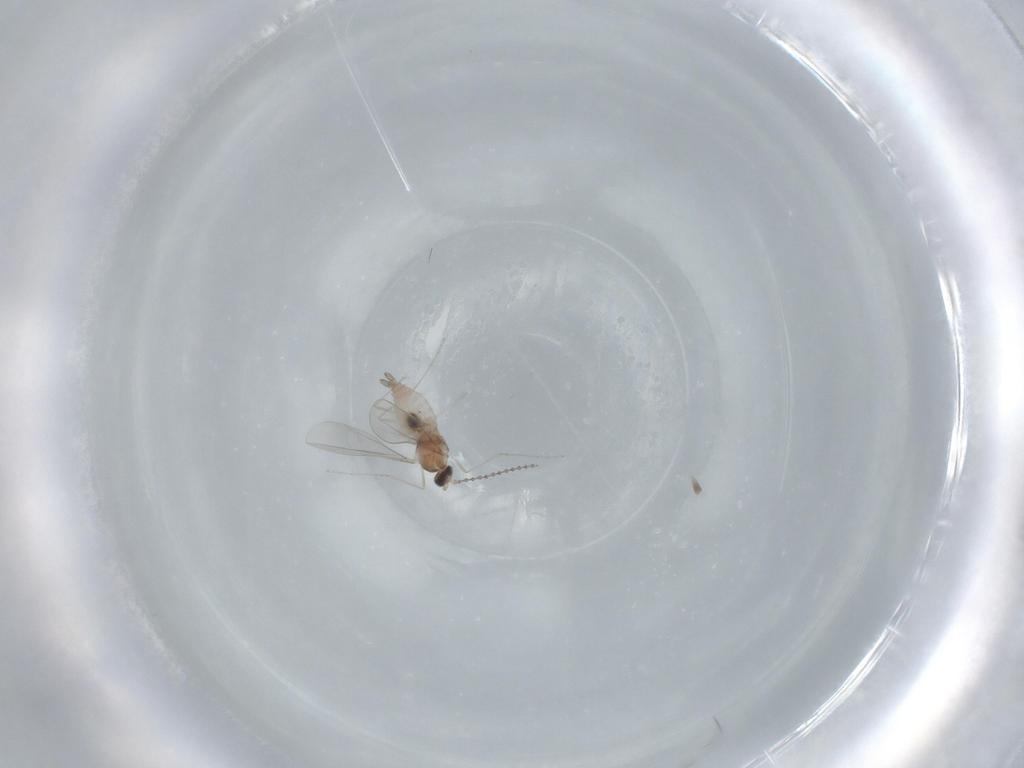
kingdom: Animalia
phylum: Arthropoda
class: Insecta
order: Diptera
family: Cecidomyiidae
